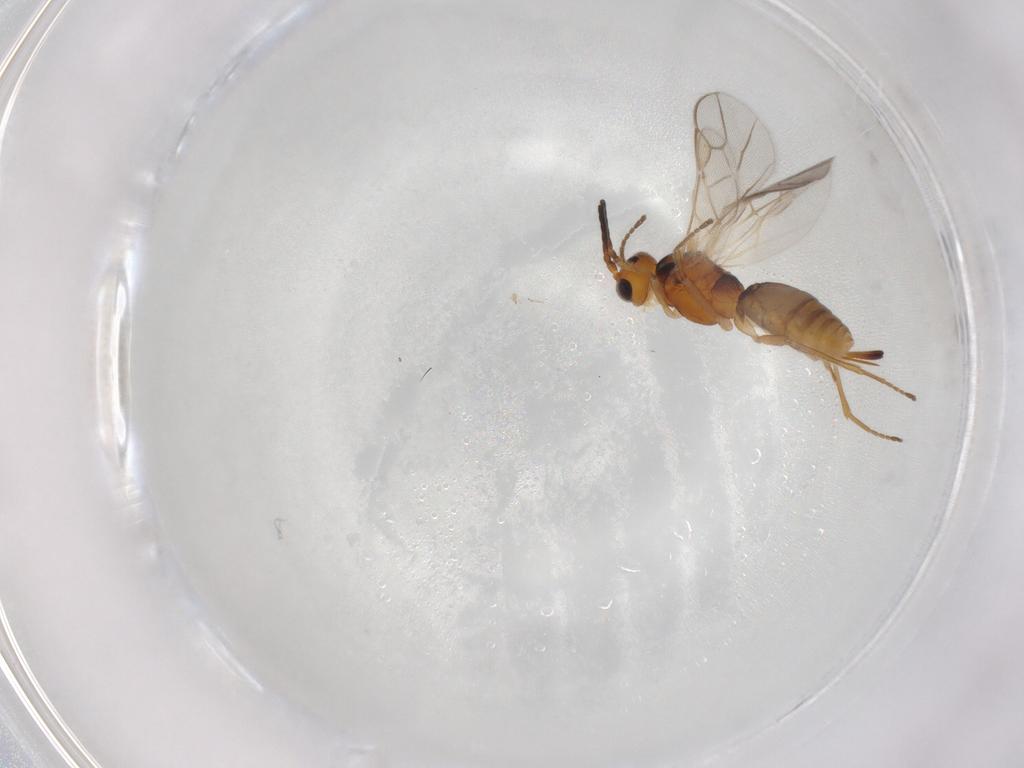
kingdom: Animalia
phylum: Arthropoda
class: Insecta
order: Hymenoptera
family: Braconidae
